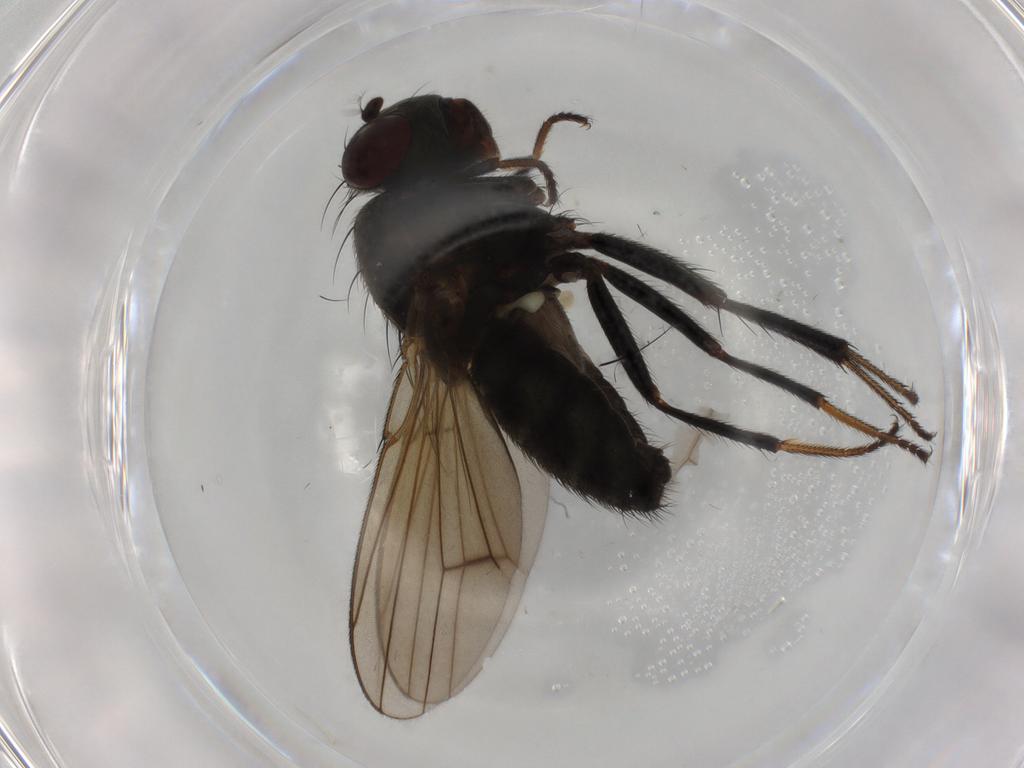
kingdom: Animalia
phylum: Arthropoda
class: Insecta
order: Diptera
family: Ephydridae
